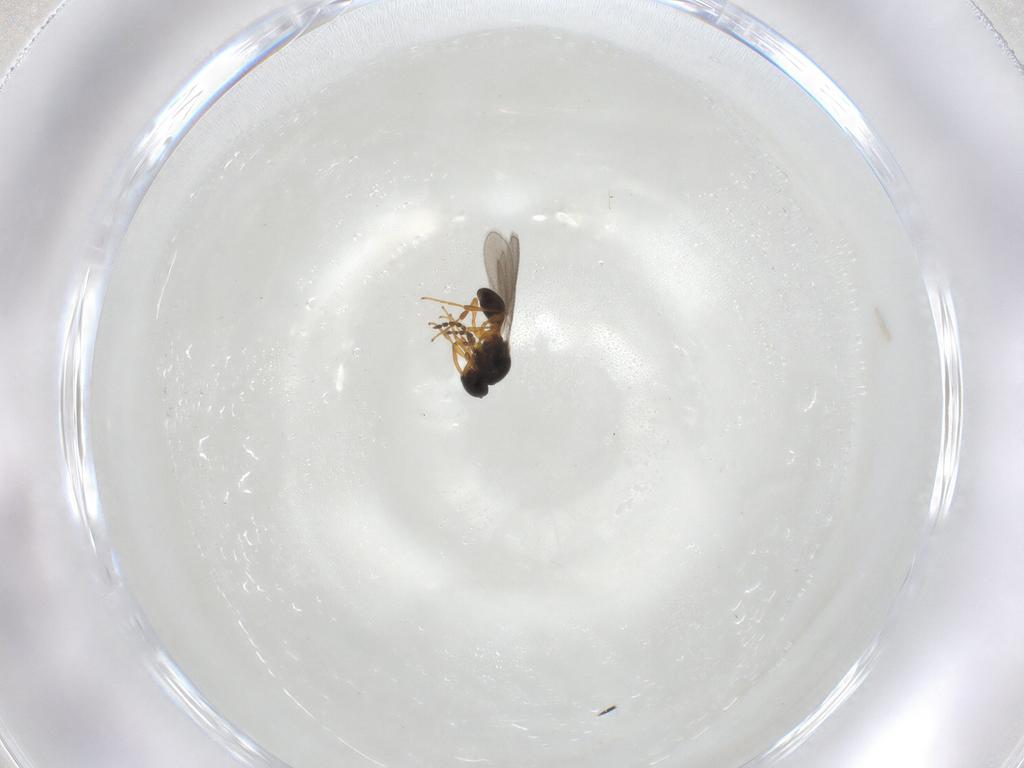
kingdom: Animalia
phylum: Arthropoda
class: Insecta
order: Hymenoptera
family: Platygastridae
